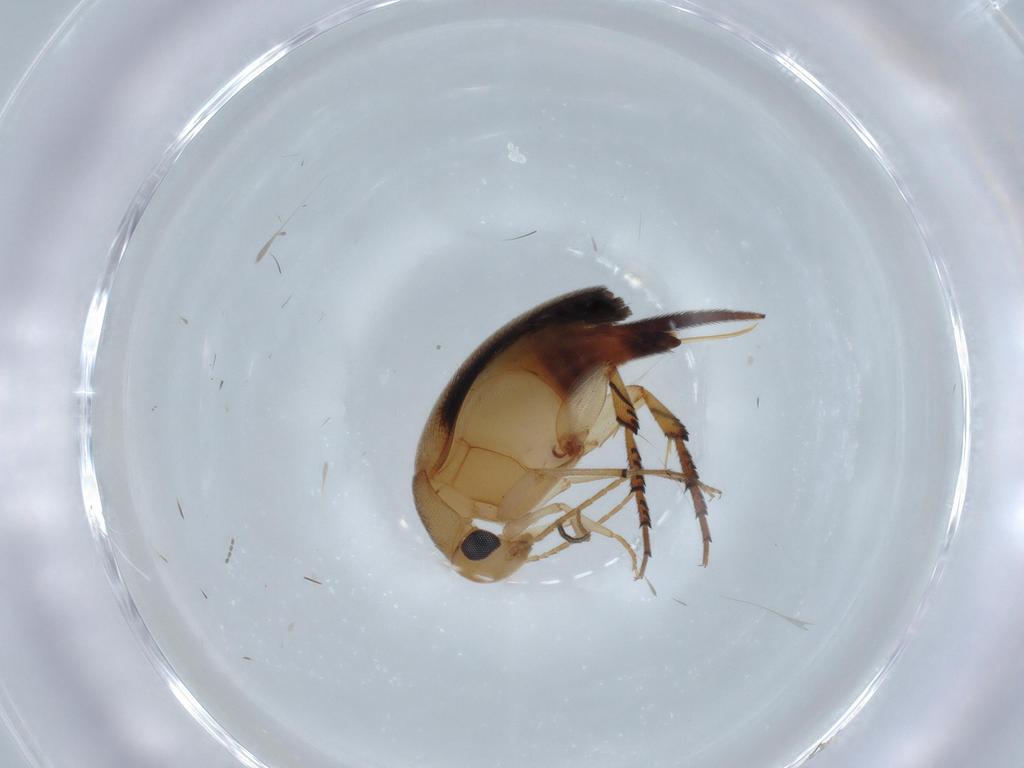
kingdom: Animalia
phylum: Arthropoda
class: Insecta
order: Coleoptera
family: Mordellidae
